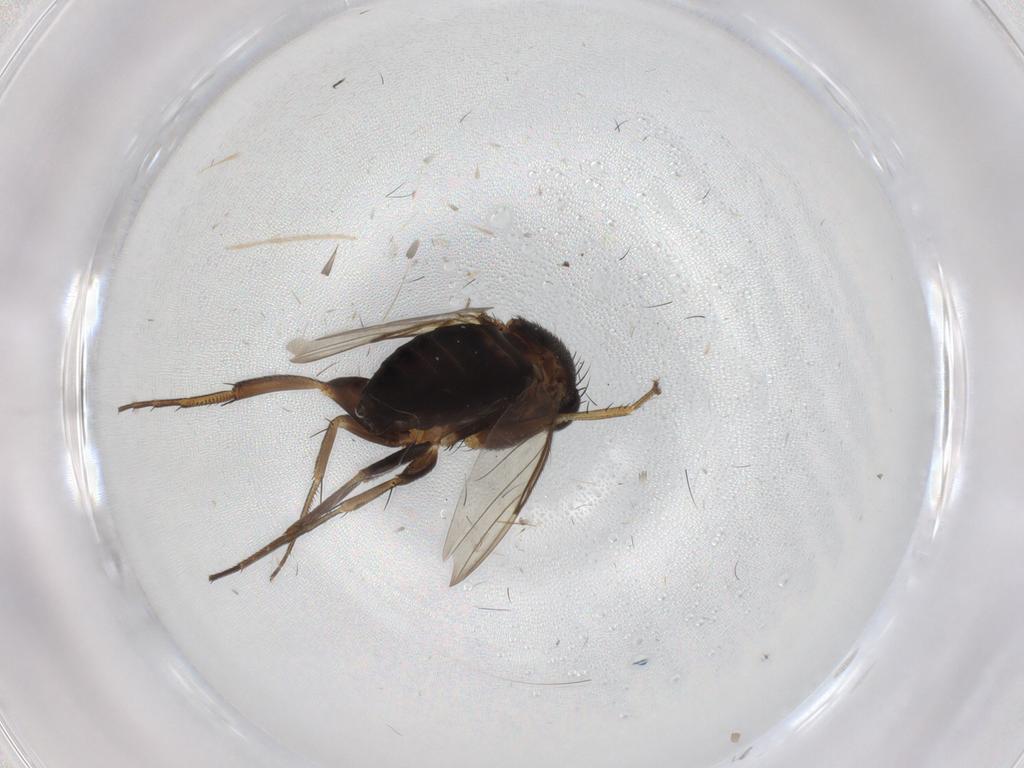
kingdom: Animalia
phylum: Arthropoda
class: Insecta
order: Diptera
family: Phoridae
